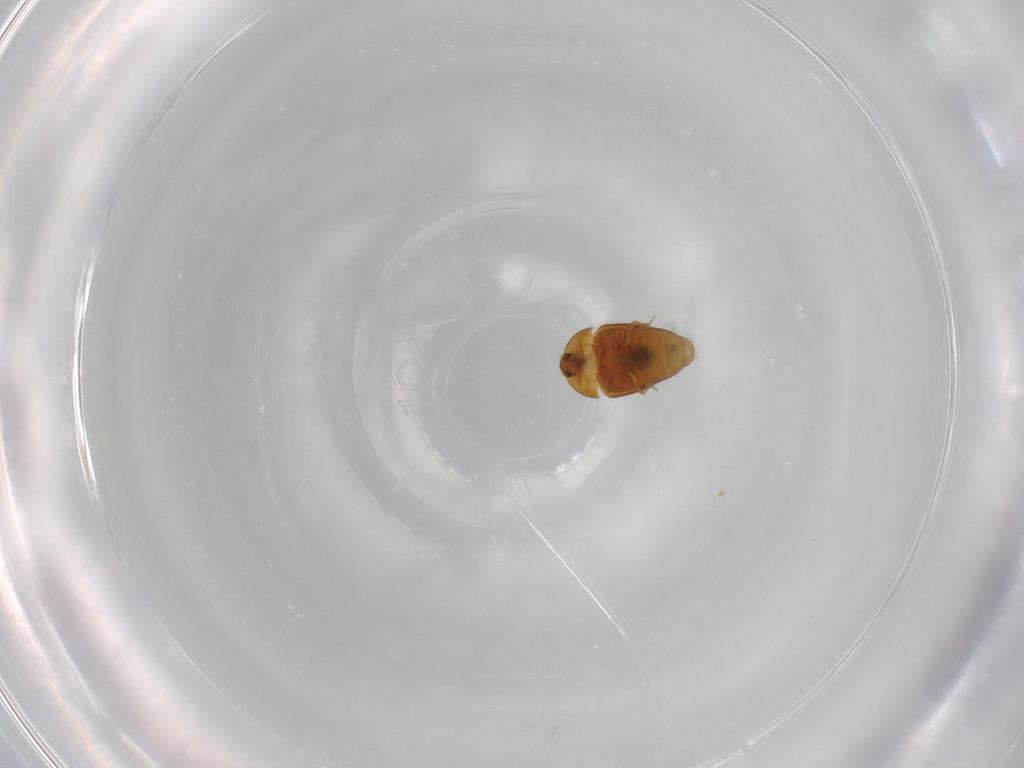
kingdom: Animalia
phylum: Arthropoda
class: Insecta
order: Coleoptera
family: Corylophidae
